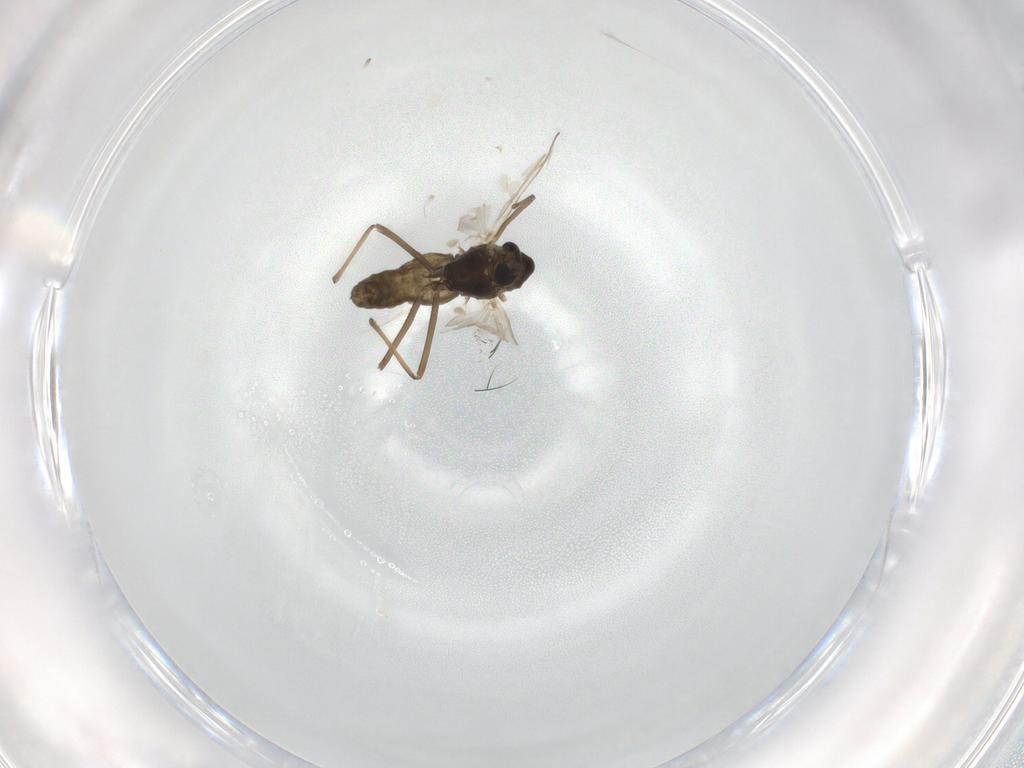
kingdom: Animalia
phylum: Arthropoda
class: Insecta
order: Diptera
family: Chironomidae
